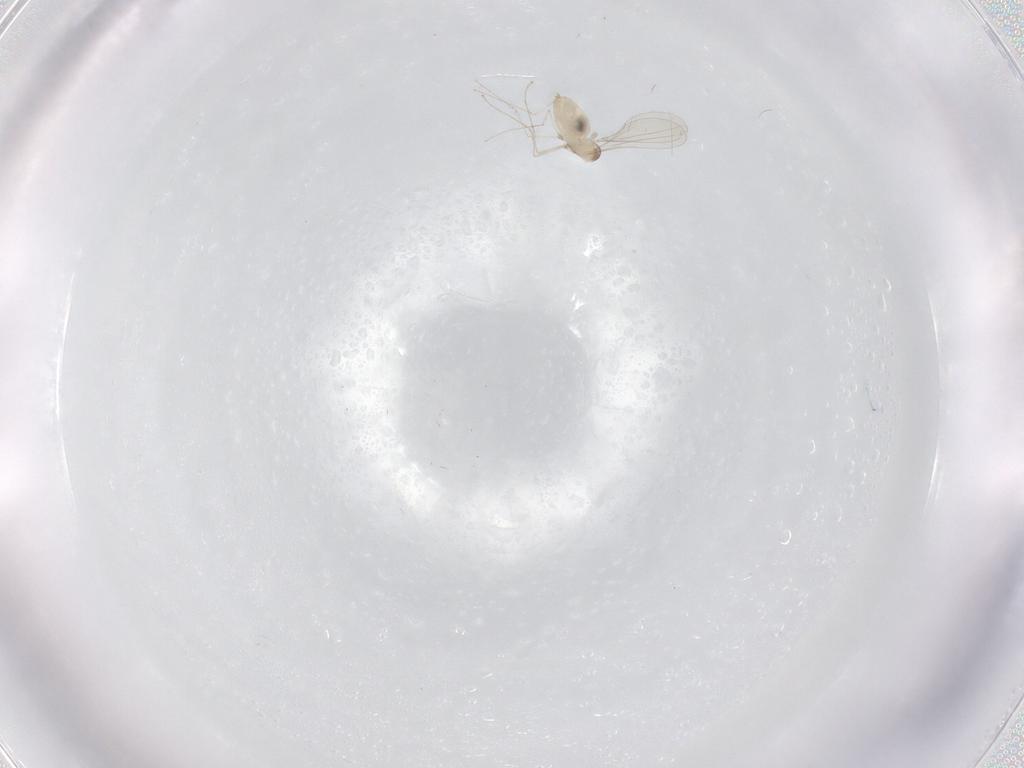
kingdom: Animalia
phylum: Arthropoda
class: Insecta
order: Diptera
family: Cecidomyiidae
